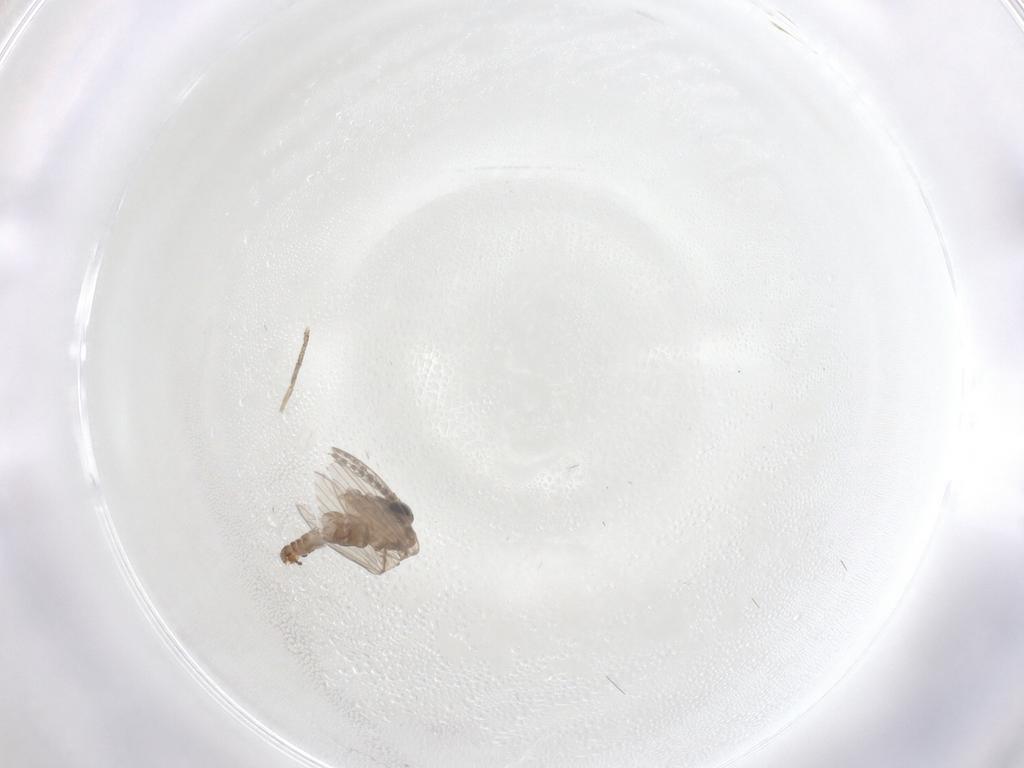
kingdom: Animalia
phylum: Arthropoda
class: Insecta
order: Diptera
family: Psychodidae
